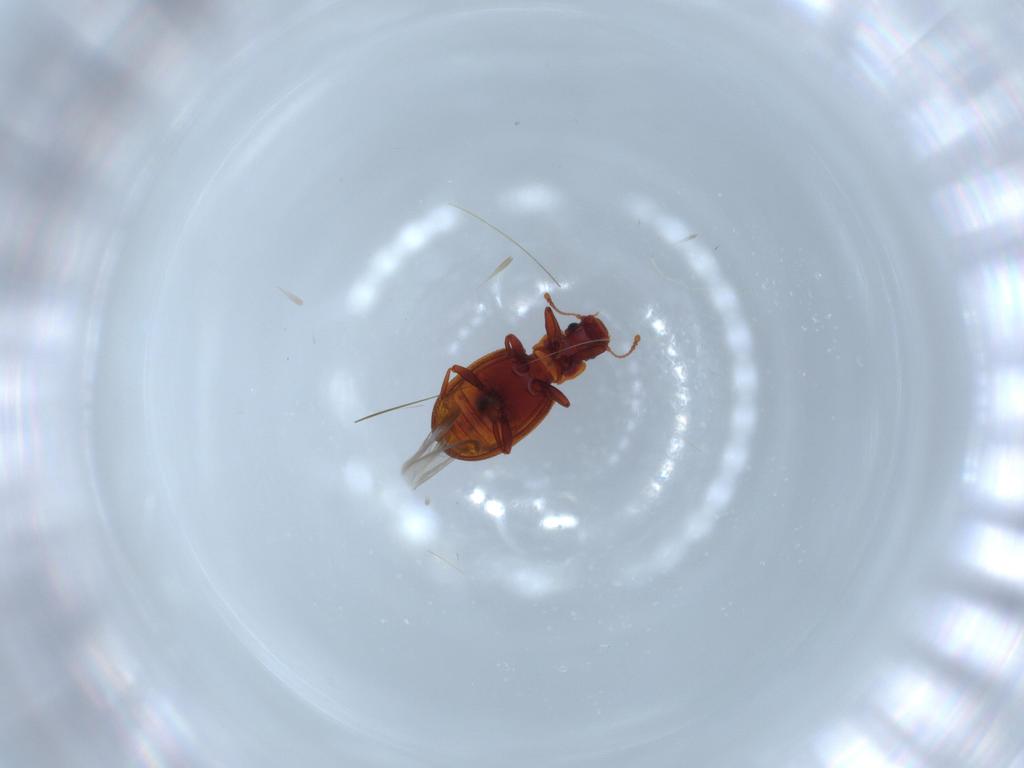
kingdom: Animalia
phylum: Arthropoda
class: Insecta
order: Coleoptera
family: Latridiidae
